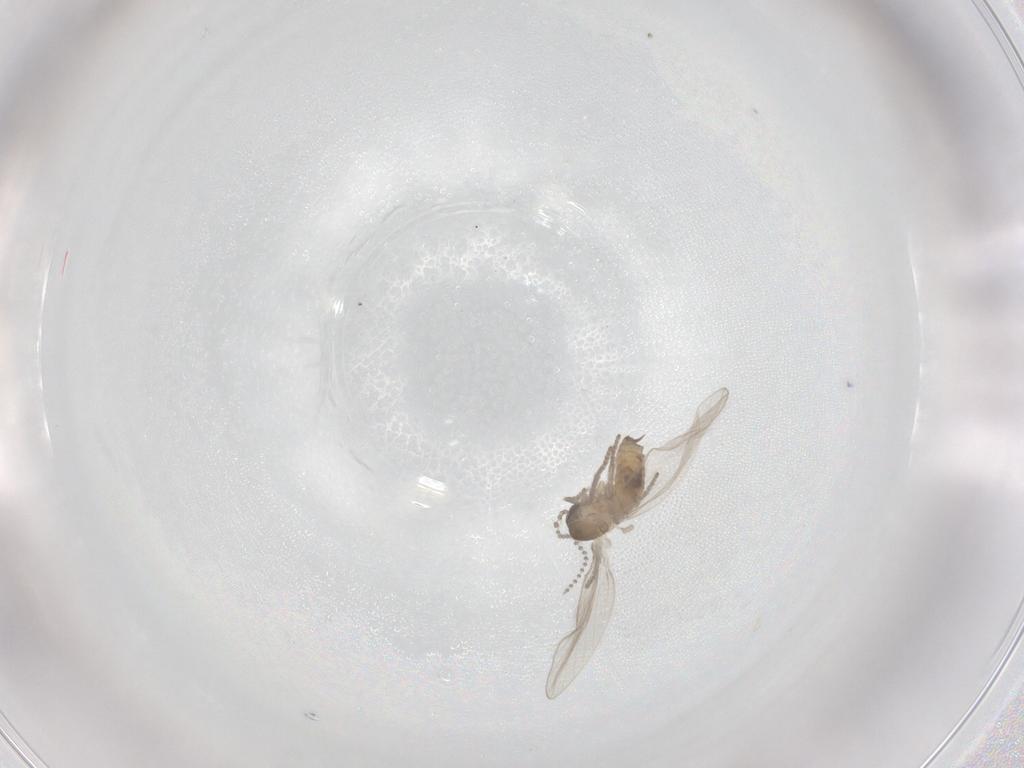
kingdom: Animalia
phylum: Arthropoda
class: Insecta
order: Diptera
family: Psychodidae
